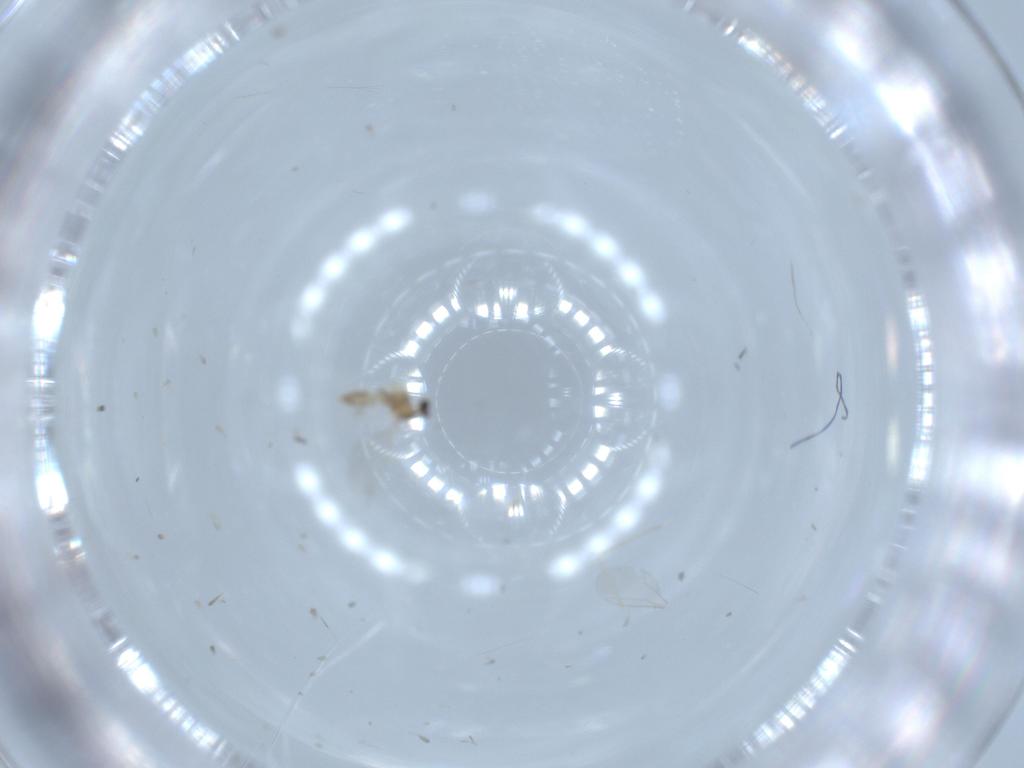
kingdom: Animalia
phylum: Arthropoda
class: Insecta
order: Diptera
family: Cecidomyiidae
